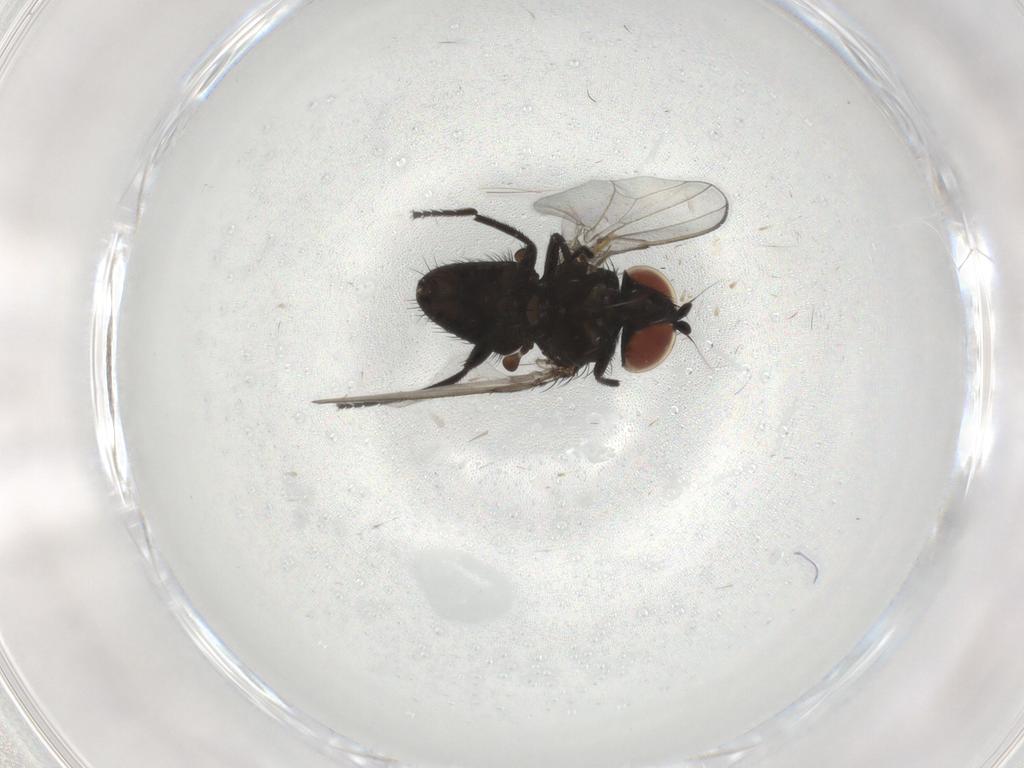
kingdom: Animalia
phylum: Arthropoda
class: Insecta
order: Diptera
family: Milichiidae
